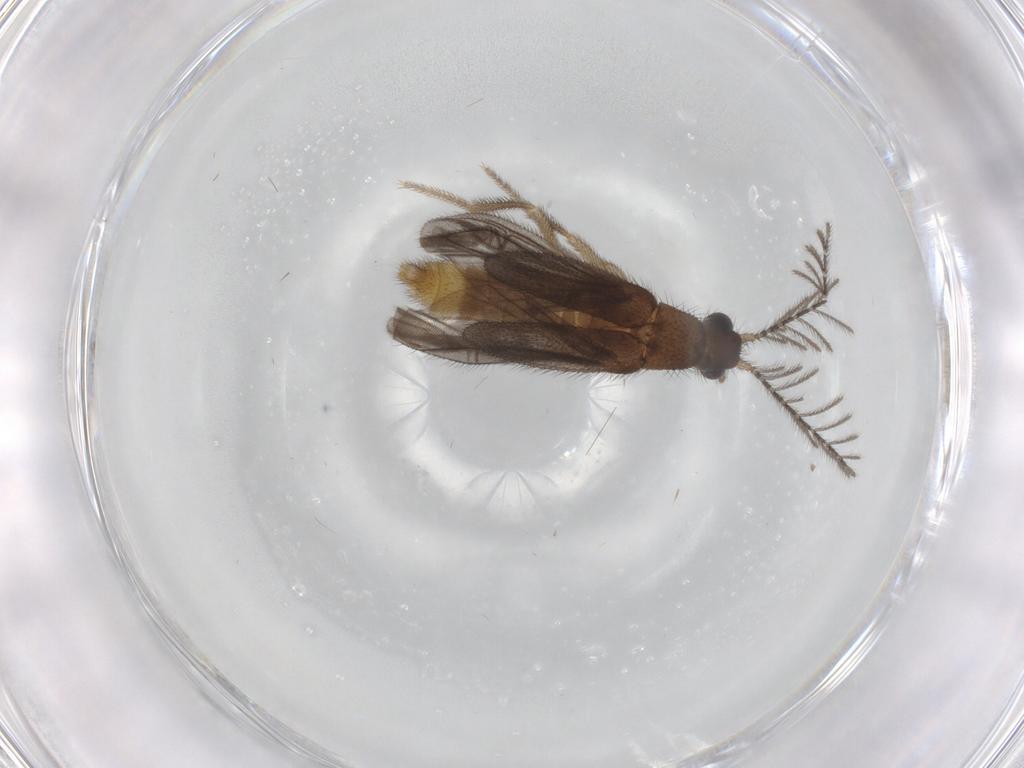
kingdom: Animalia
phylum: Arthropoda
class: Insecta
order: Coleoptera
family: Phengodidae
